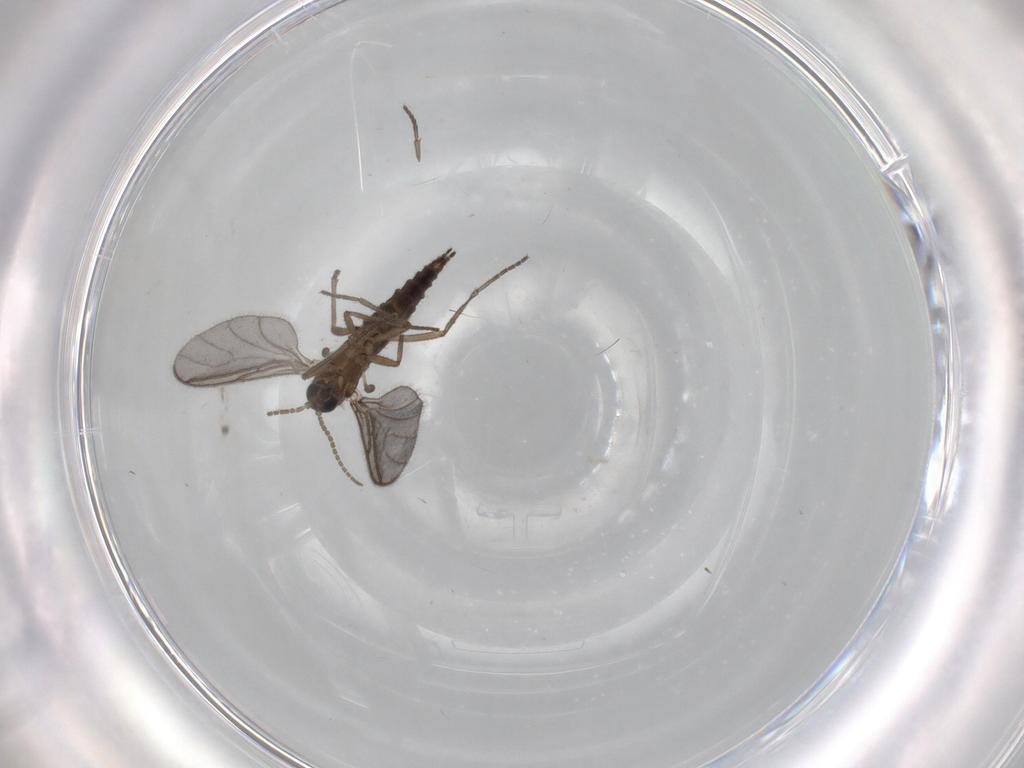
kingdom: Animalia
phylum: Arthropoda
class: Insecta
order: Diptera
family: Sciaridae
